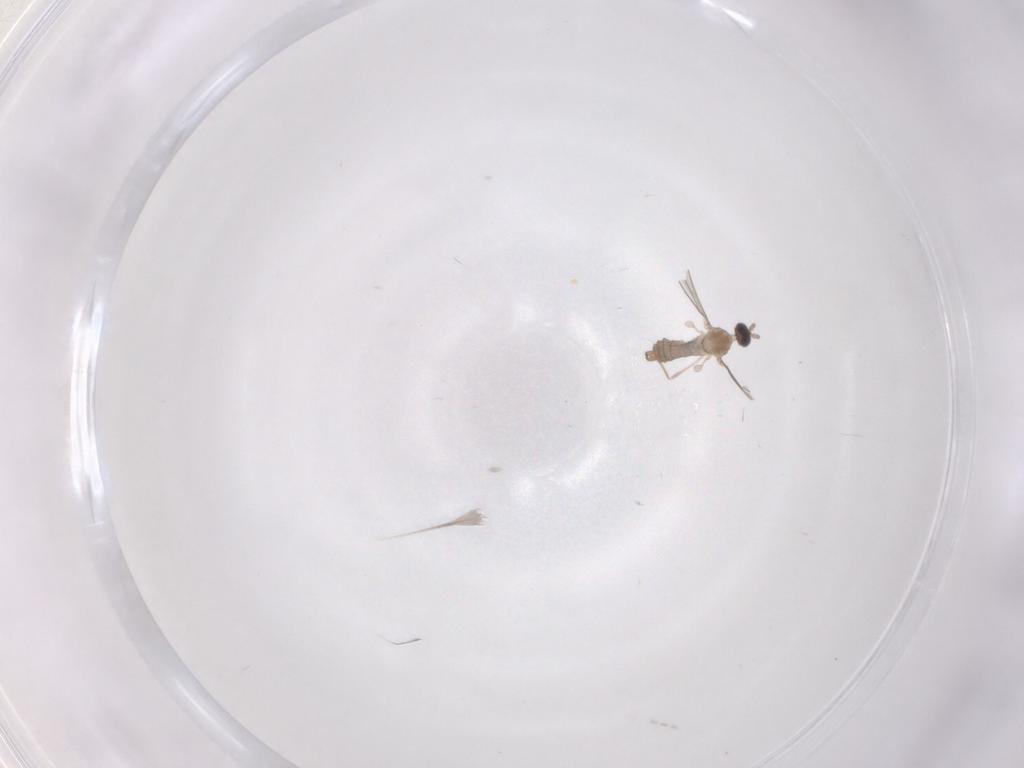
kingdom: Animalia
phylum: Arthropoda
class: Insecta
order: Diptera
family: Cecidomyiidae
